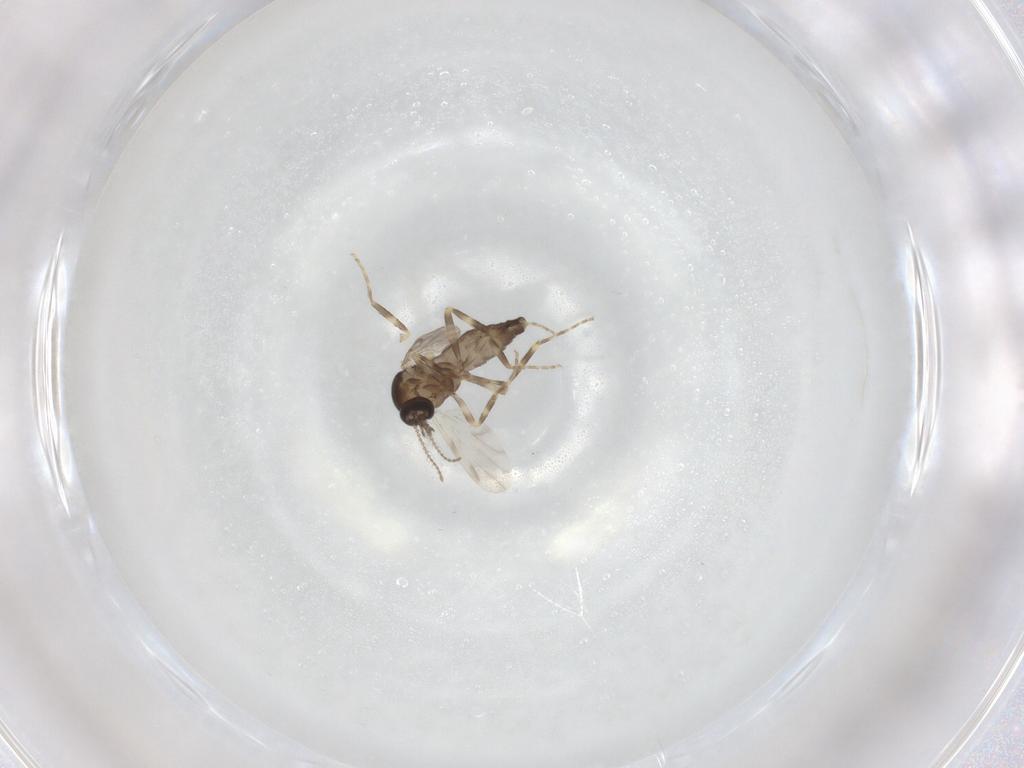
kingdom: Animalia
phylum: Arthropoda
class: Insecta
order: Diptera
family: Ceratopogonidae
